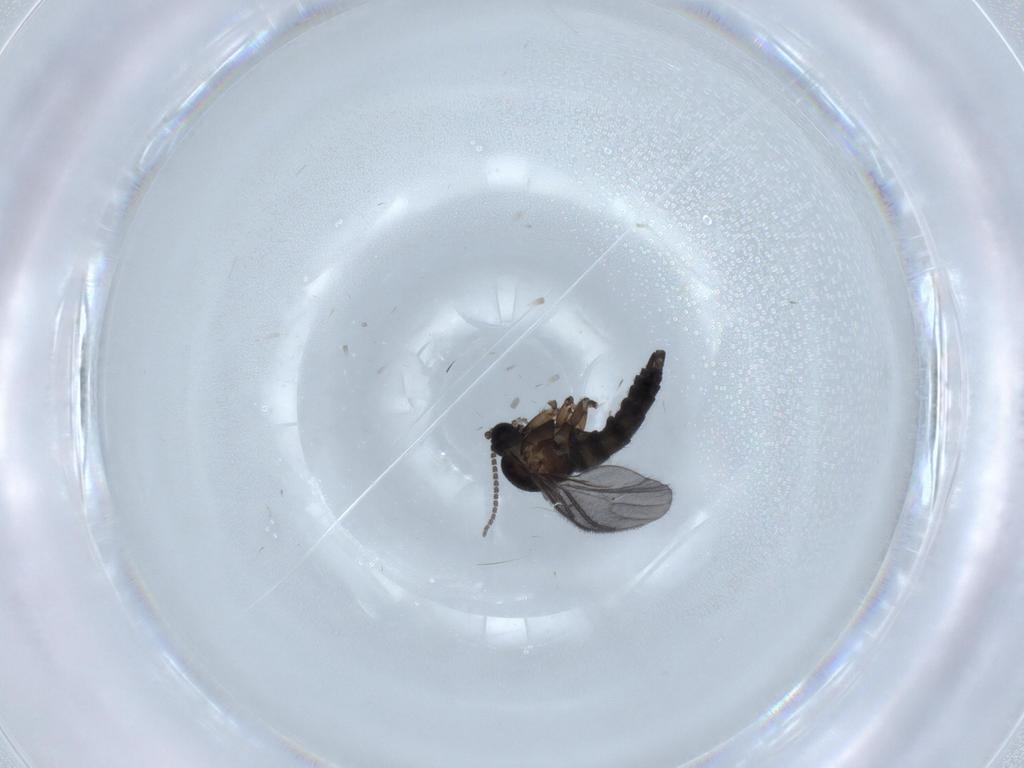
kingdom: Animalia
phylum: Arthropoda
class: Insecta
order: Diptera
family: Sciaridae
